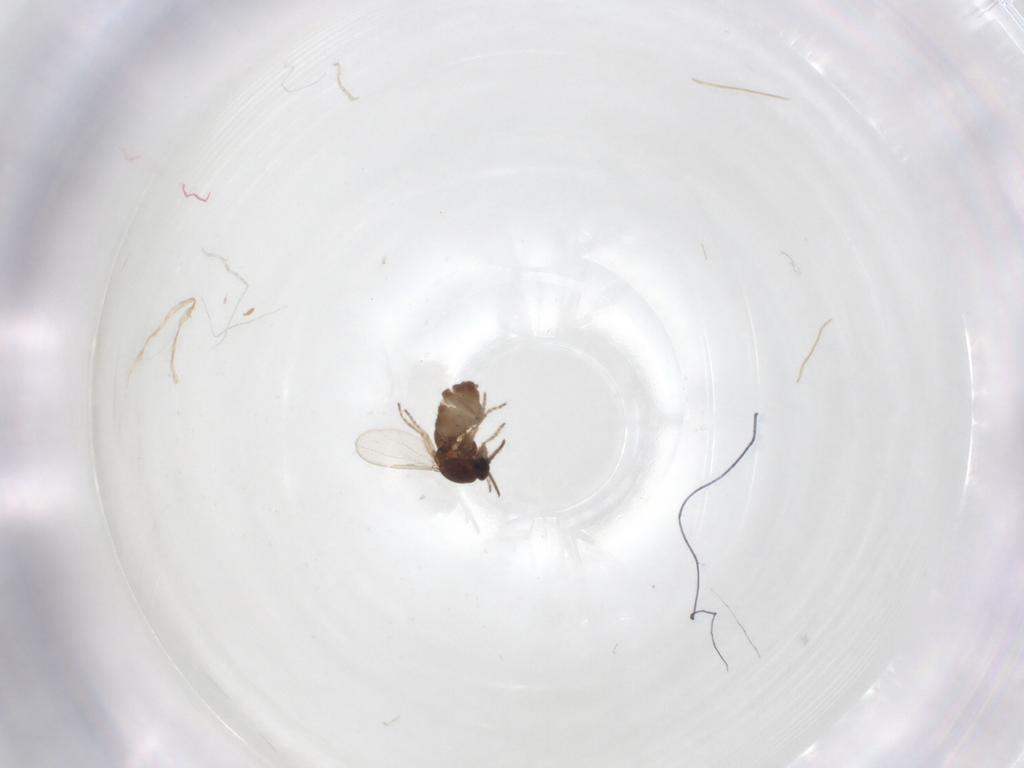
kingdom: Animalia
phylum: Arthropoda
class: Insecta
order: Diptera
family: Ceratopogonidae
